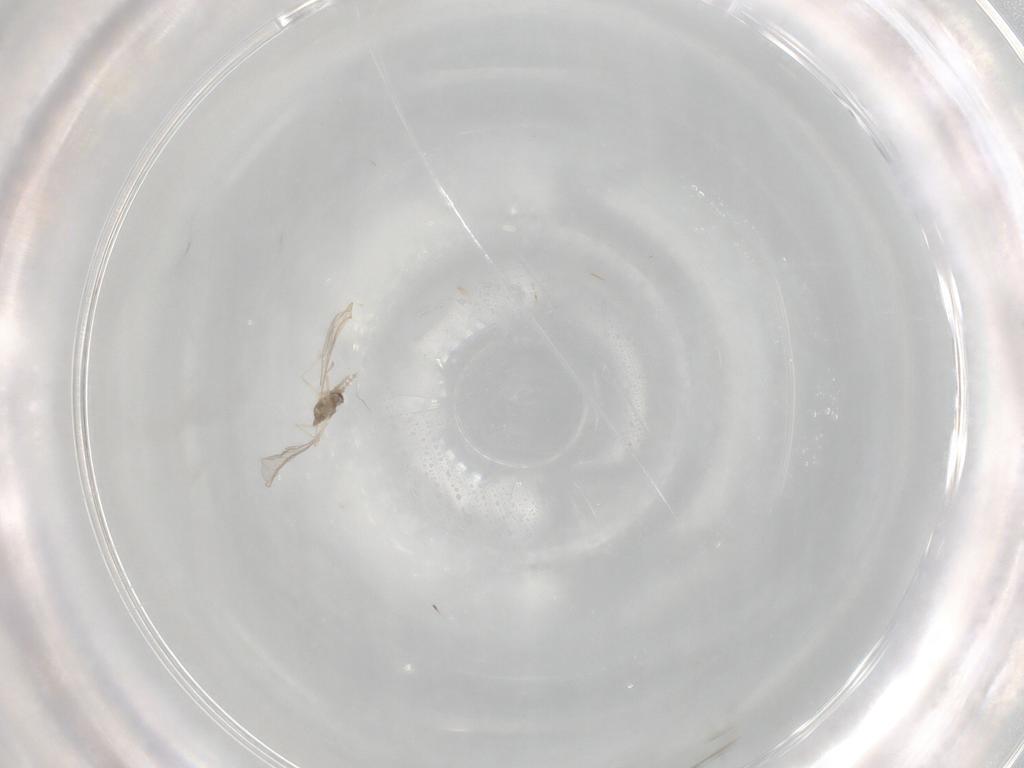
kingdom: Animalia
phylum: Arthropoda
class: Insecta
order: Diptera
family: Cecidomyiidae
